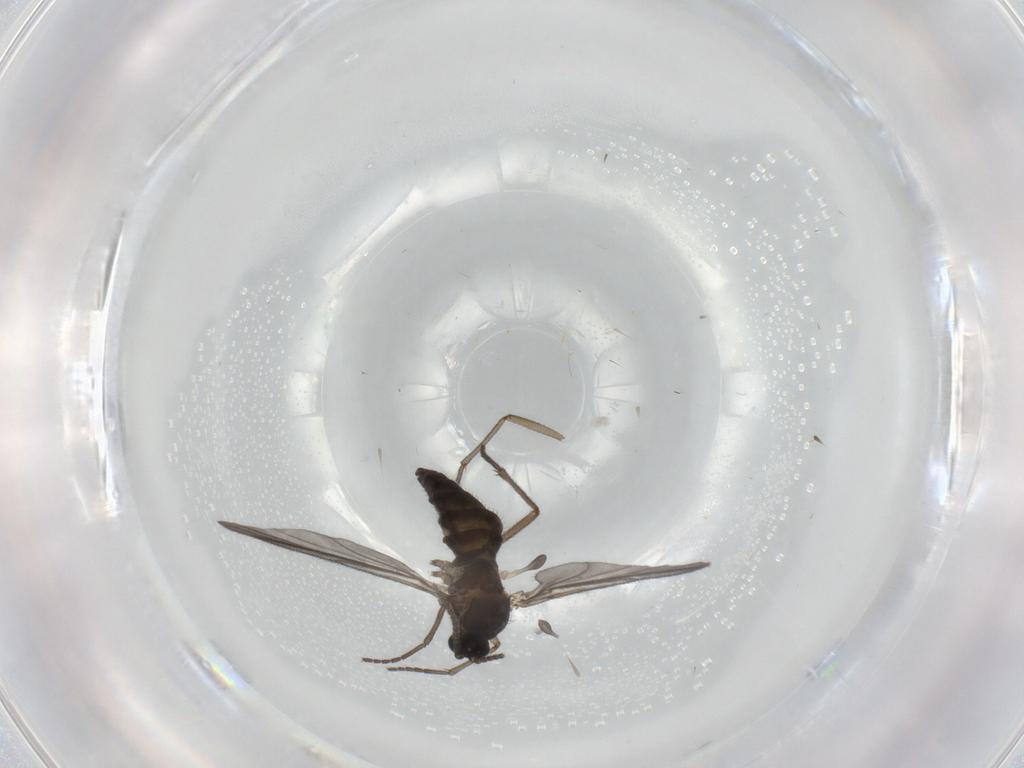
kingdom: Animalia
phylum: Arthropoda
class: Insecta
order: Diptera
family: Sciaridae
